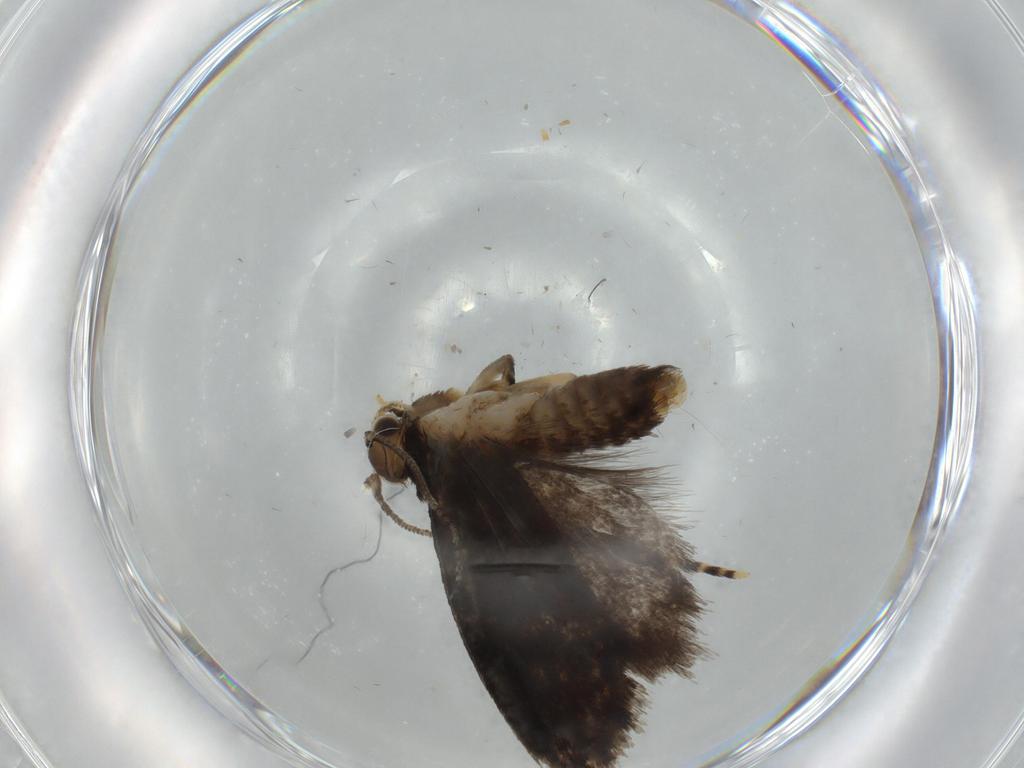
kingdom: Animalia
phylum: Arthropoda
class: Insecta
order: Lepidoptera
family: Tineidae
